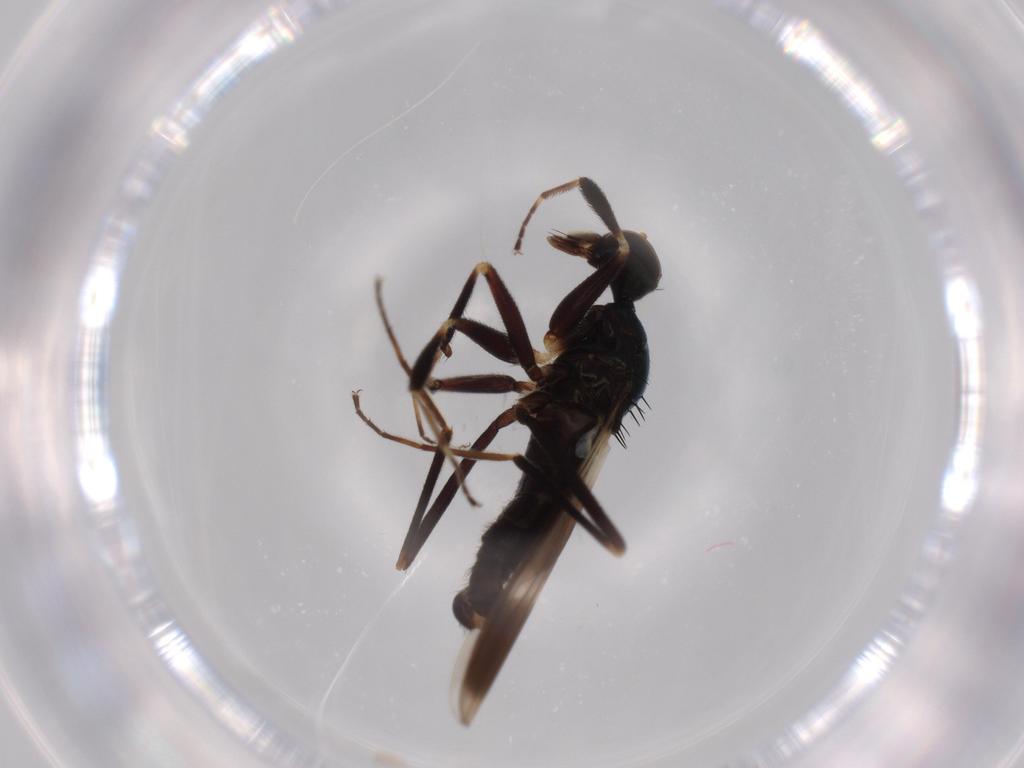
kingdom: Animalia
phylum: Arthropoda
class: Insecta
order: Diptera
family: Hybotidae
